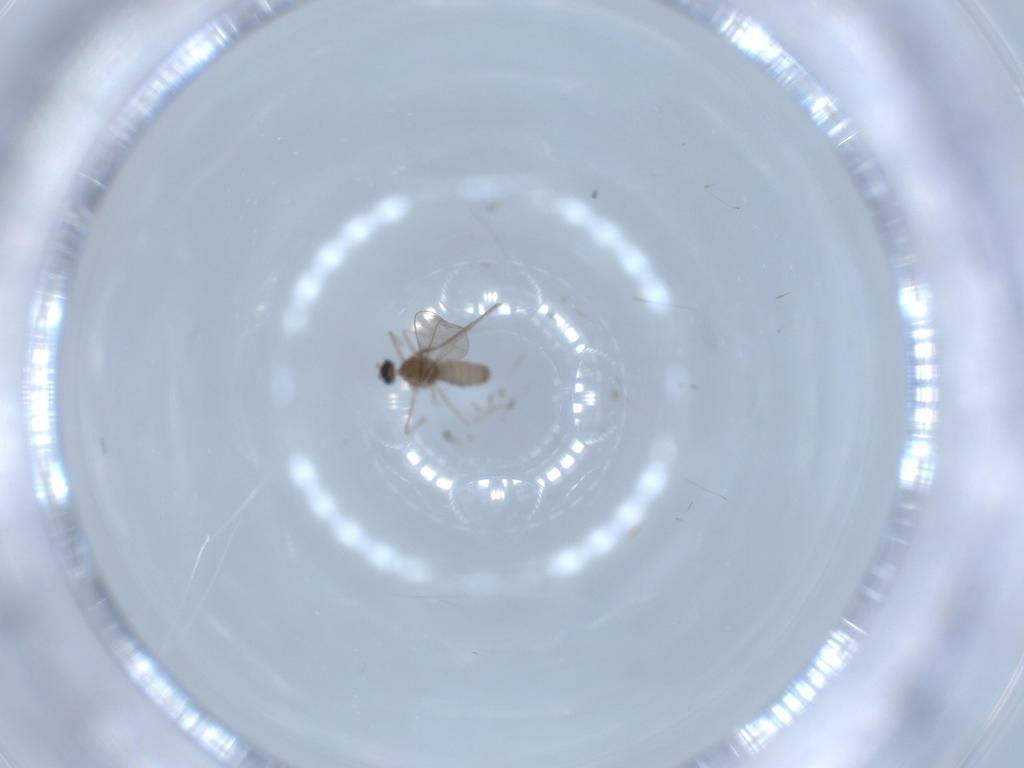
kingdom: Animalia
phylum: Arthropoda
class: Insecta
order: Diptera
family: Cecidomyiidae
